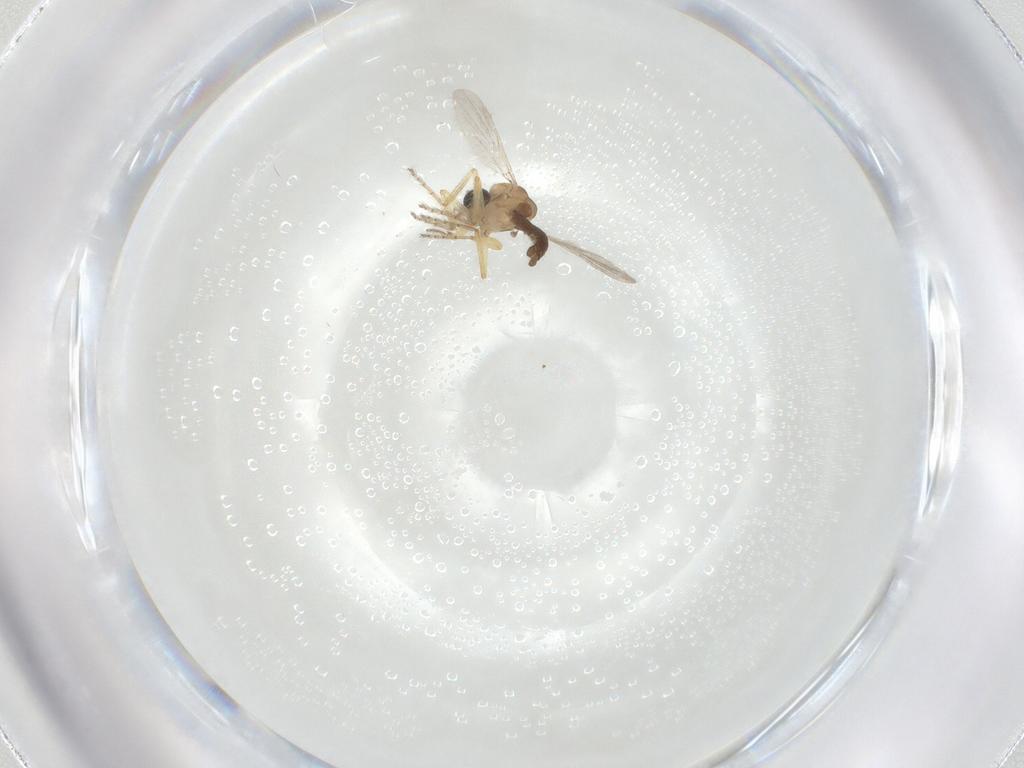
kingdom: Animalia
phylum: Arthropoda
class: Insecta
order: Diptera
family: Ceratopogonidae
